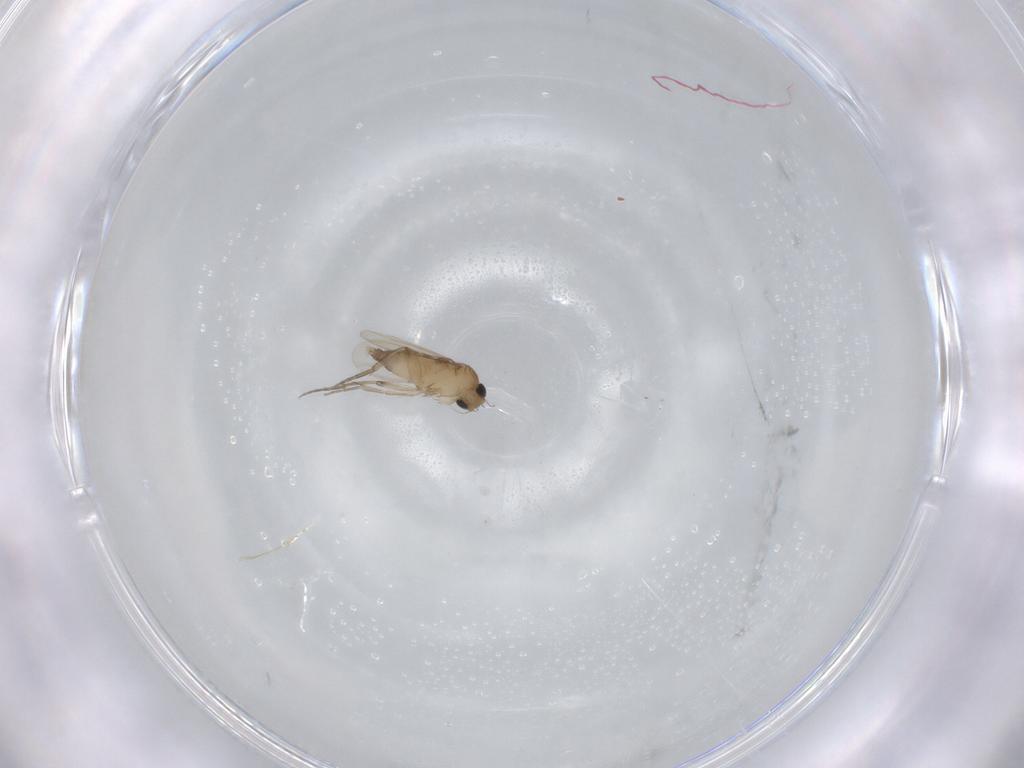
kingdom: Animalia
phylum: Arthropoda
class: Insecta
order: Diptera
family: Phoridae
